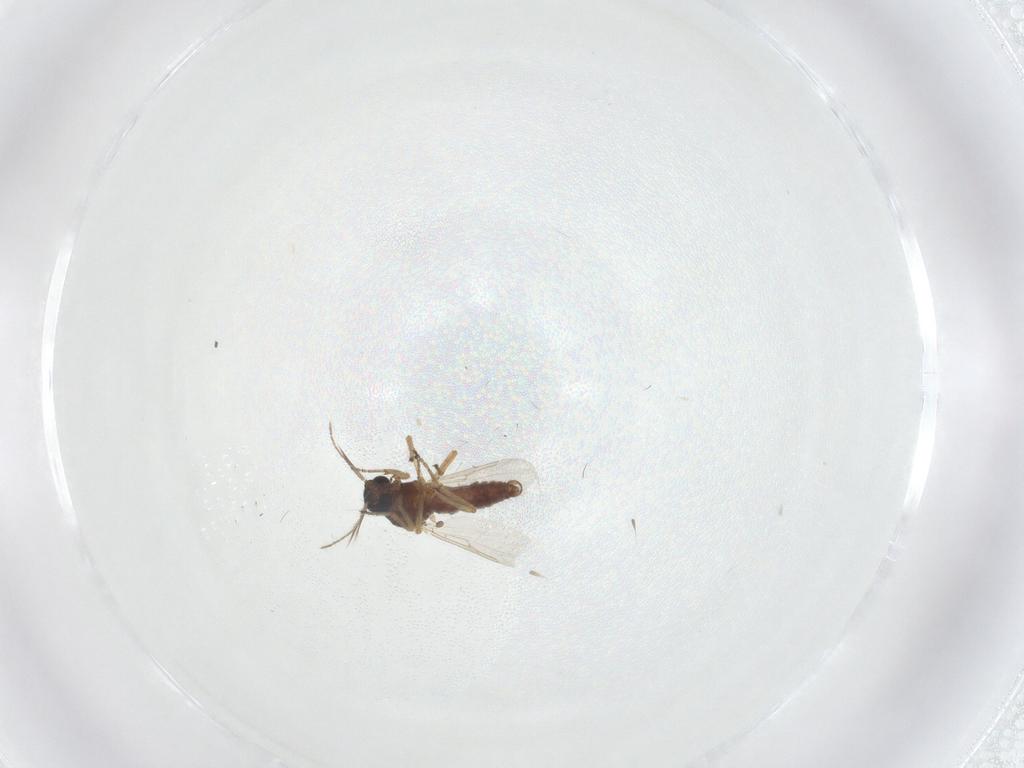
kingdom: Animalia
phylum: Arthropoda
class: Insecta
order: Diptera
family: Ceratopogonidae
